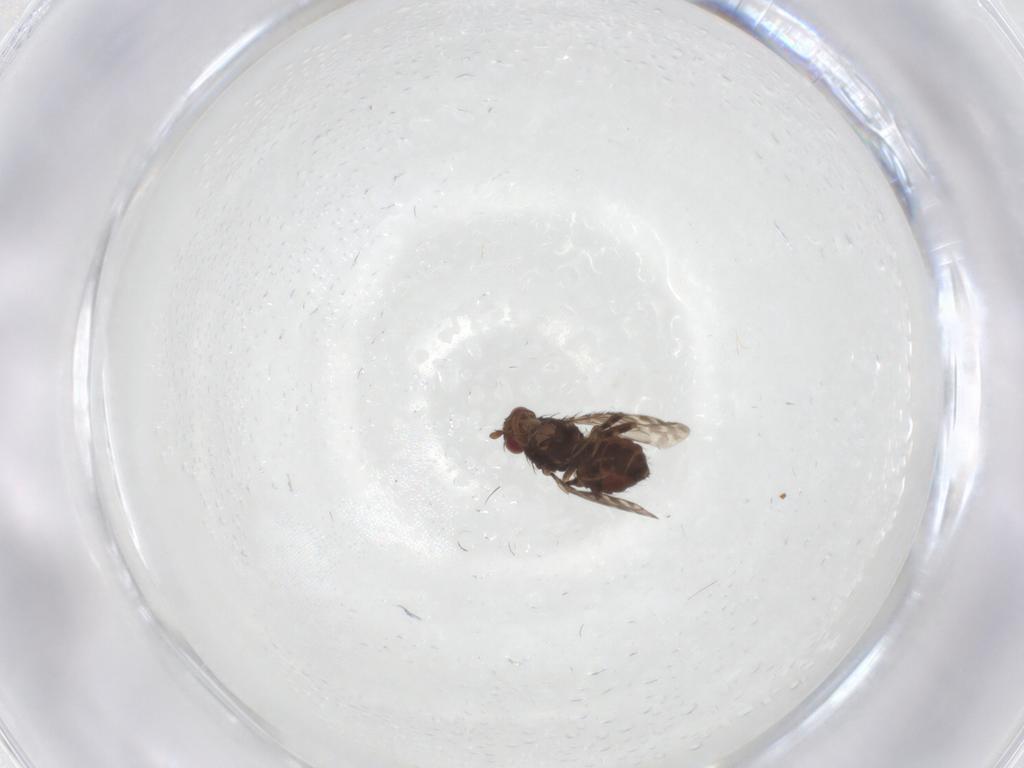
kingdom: Animalia
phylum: Arthropoda
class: Insecta
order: Diptera
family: Sphaeroceridae
